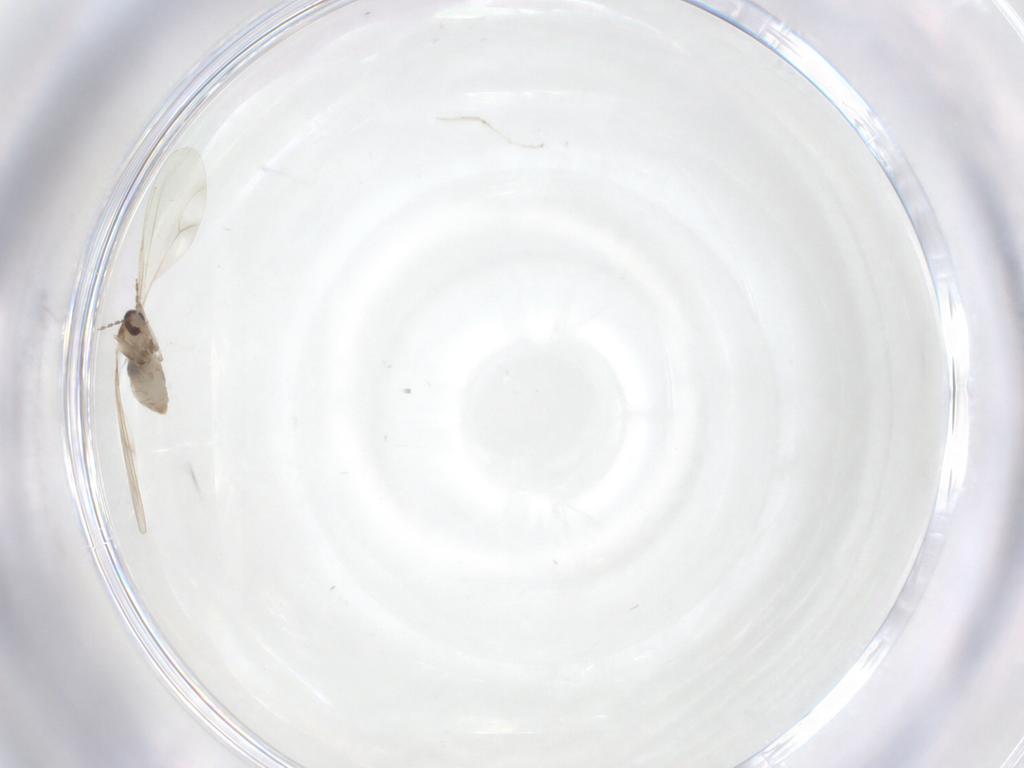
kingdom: Animalia
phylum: Arthropoda
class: Insecta
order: Diptera
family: Cecidomyiidae
